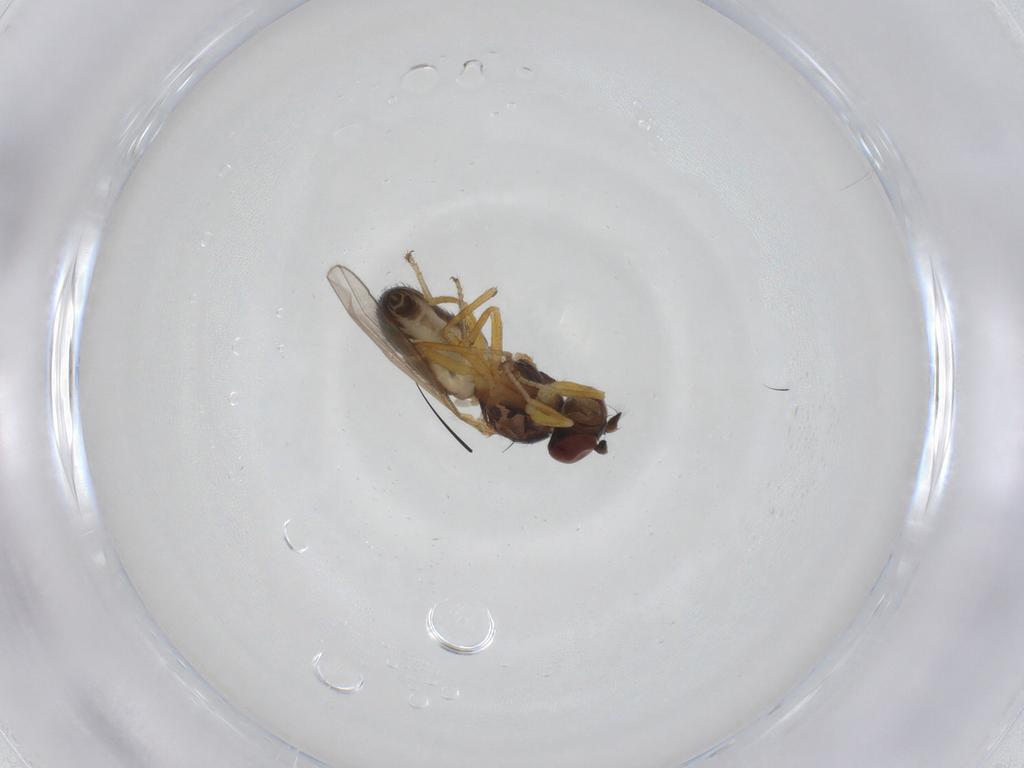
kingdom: Animalia
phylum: Arthropoda
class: Insecta
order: Diptera
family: Muscidae
